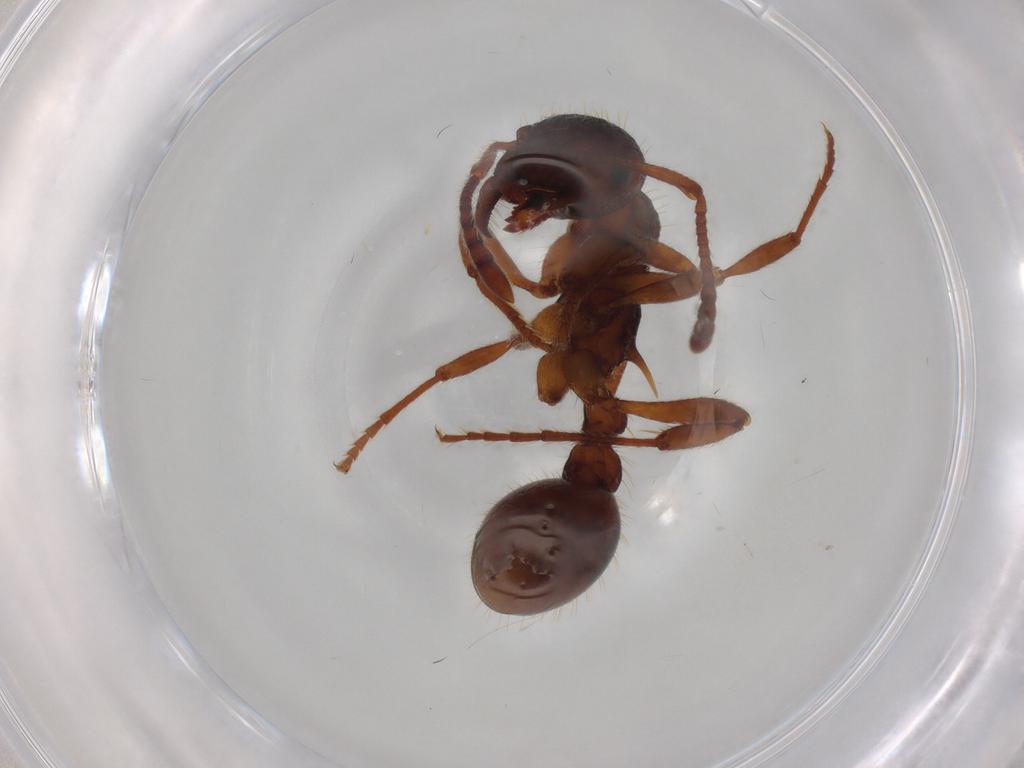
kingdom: Animalia
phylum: Arthropoda
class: Insecta
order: Hymenoptera
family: Formicidae
